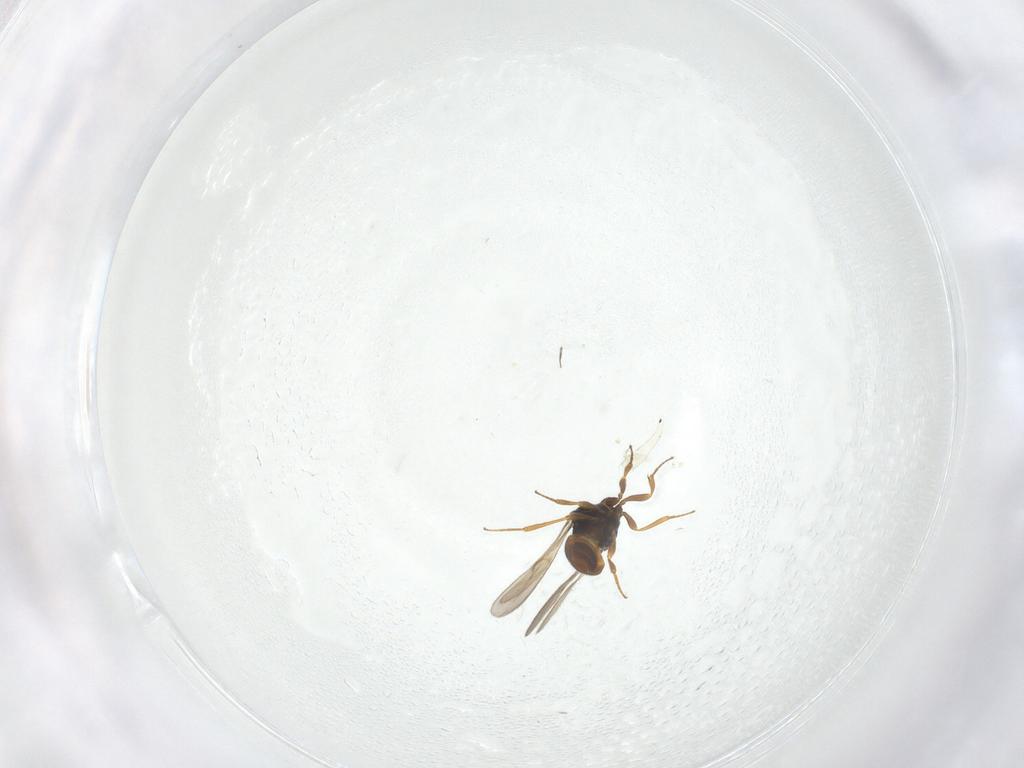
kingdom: Animalia
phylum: Arthropoda
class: Insecta
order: Hymenoptera
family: Scelionidae
